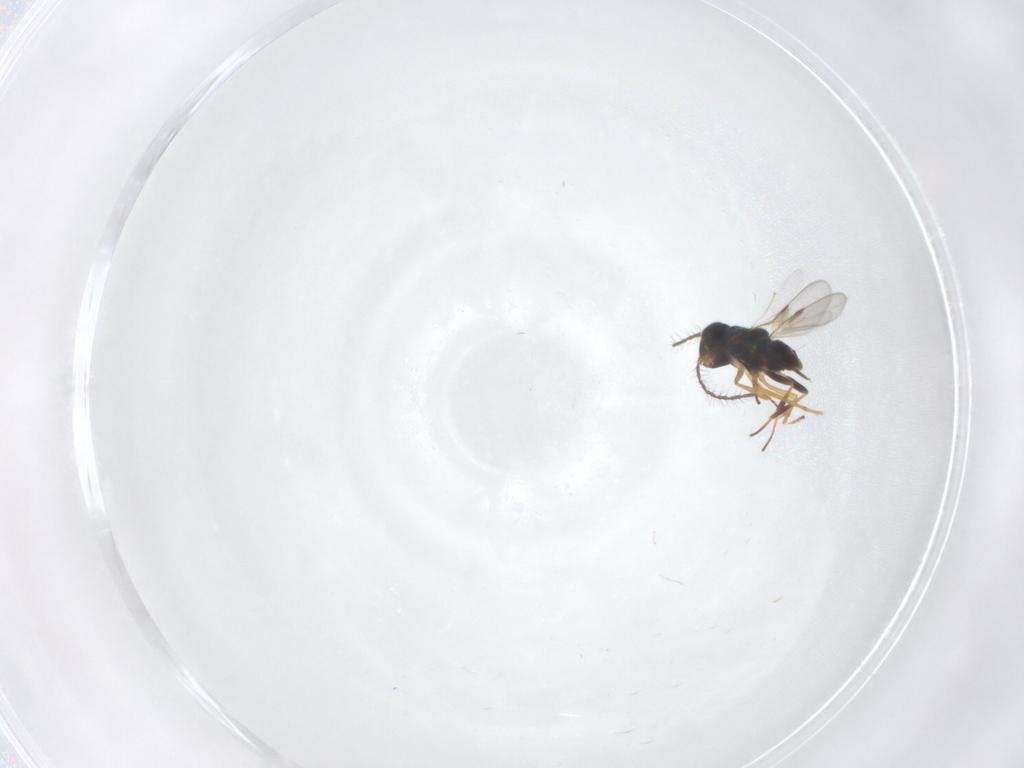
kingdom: Animalia
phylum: Arthropoda
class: Insecta
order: Hymenoptera
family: Encyrtidae
